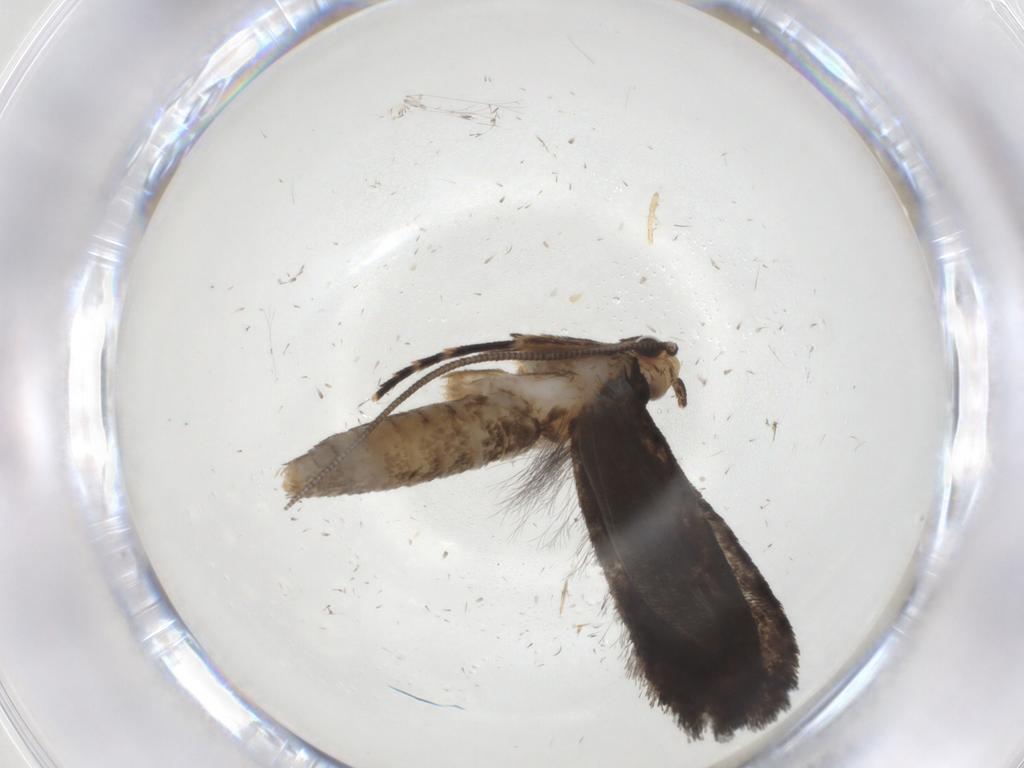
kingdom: Animalia
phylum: Arthropoda
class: Insecta
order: Lepidoptera
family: Tineidae
